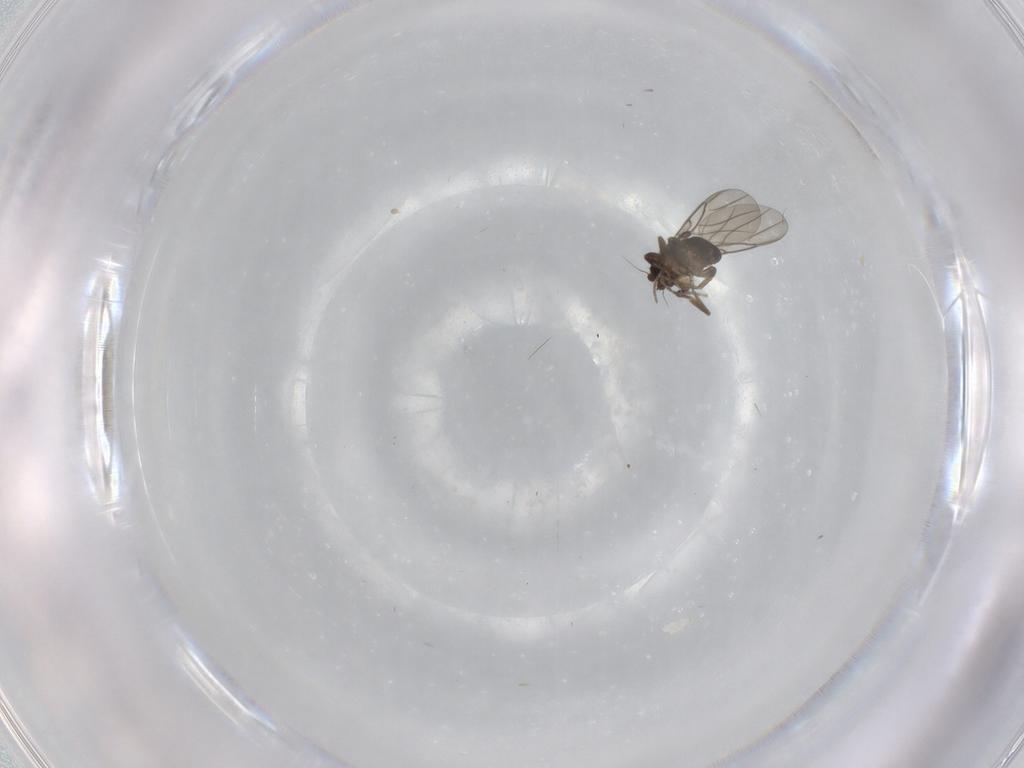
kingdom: Animalia
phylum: Arthropoda
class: Insecta
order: Diptera
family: Phoridae
